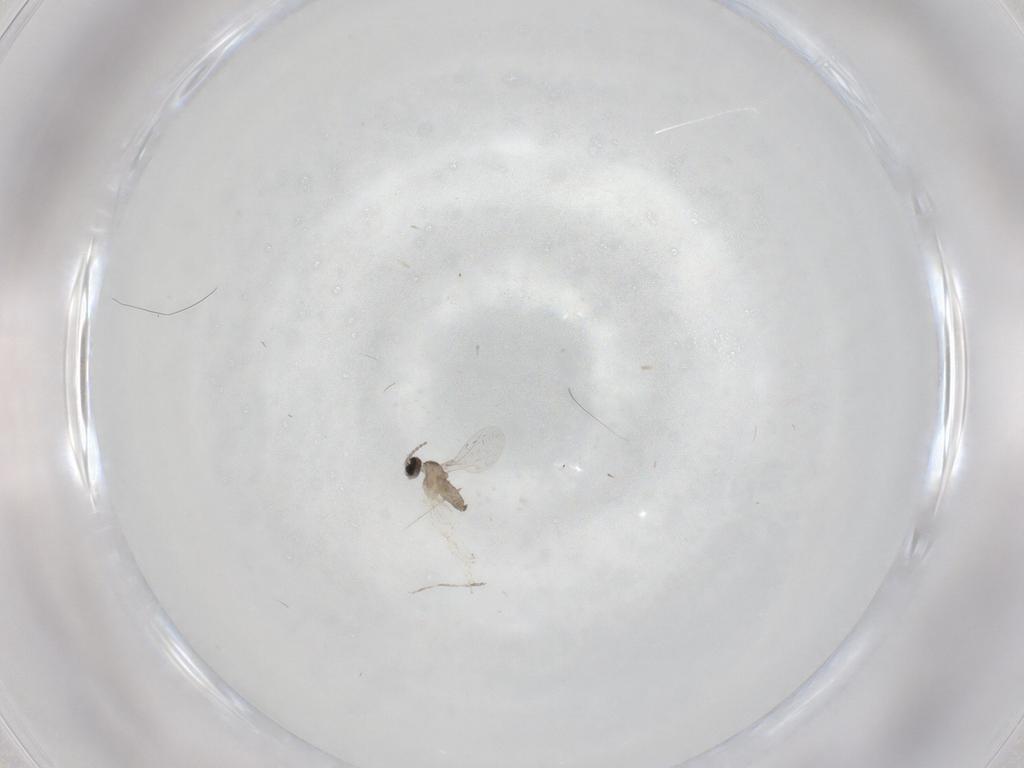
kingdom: Animalia
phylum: Arthropoda
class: Insecta
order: Diptera
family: Cecidomyiidae
